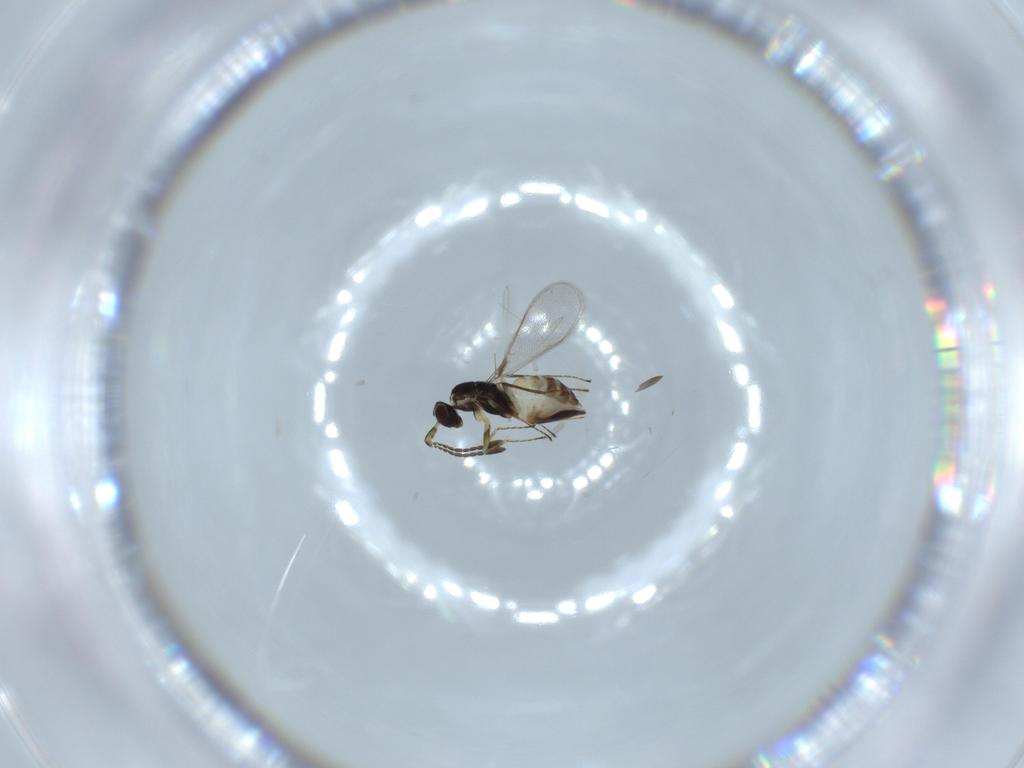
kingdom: Animalia
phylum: Arthropoda
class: Insecta
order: Hymenoptera
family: Mymaridae
